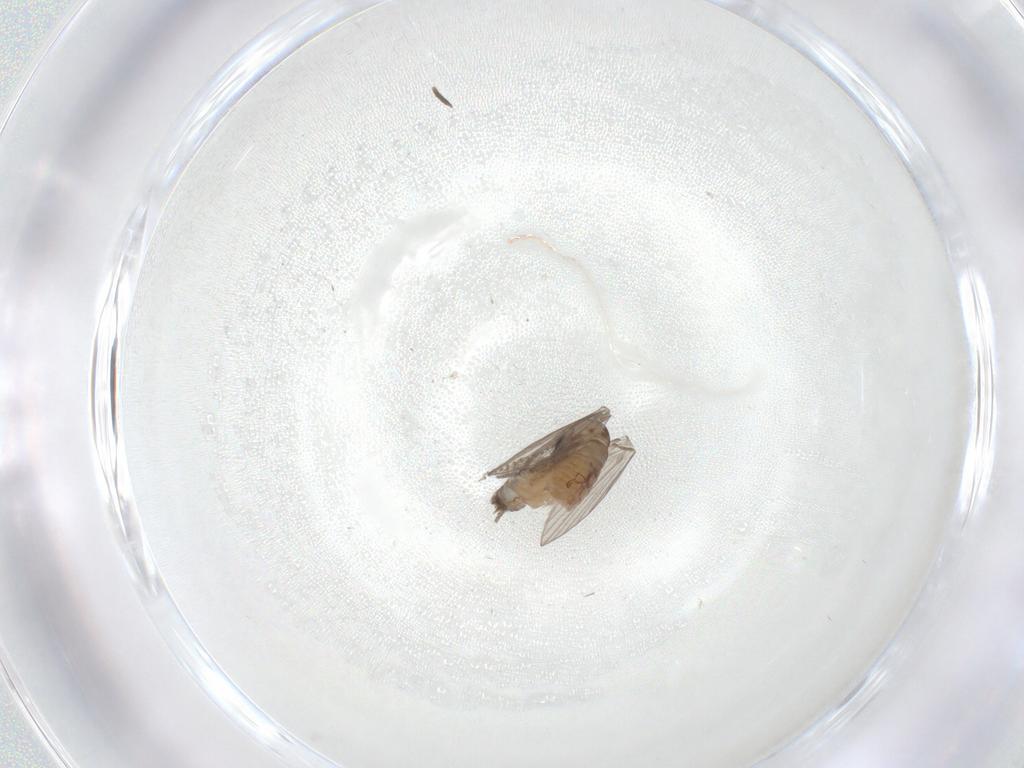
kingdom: Animalia
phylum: Arthropoda
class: Insecta
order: Diptera
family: Psychodidae
